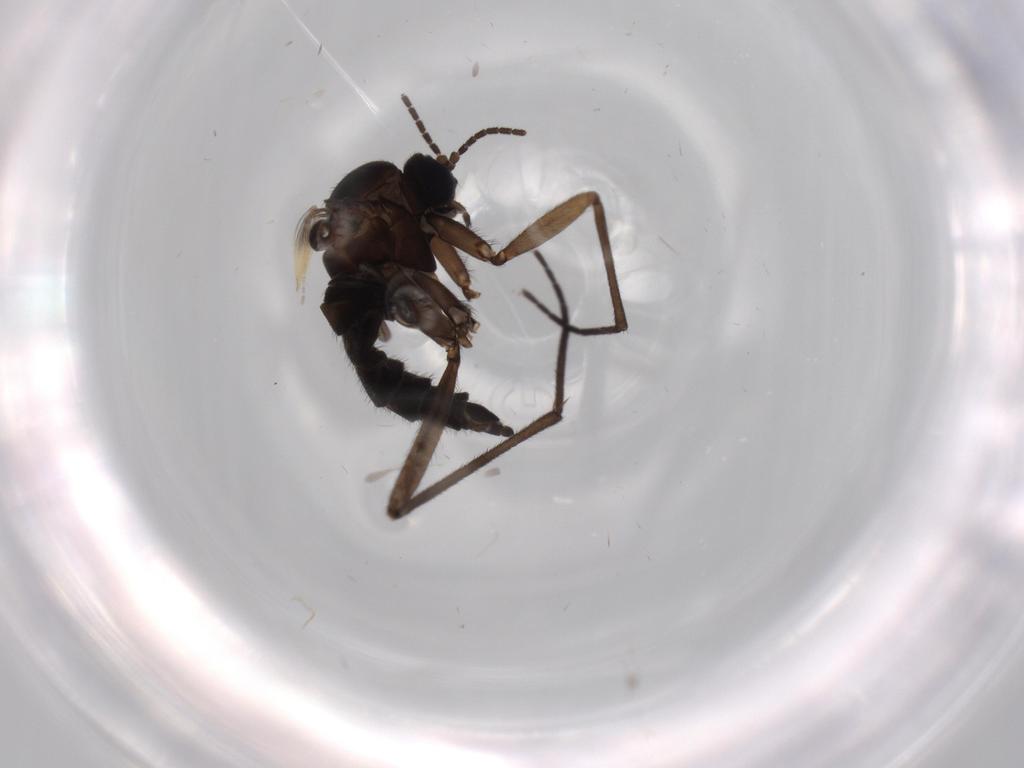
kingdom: Animalia
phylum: Arthropoda
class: Insecta
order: Diptera
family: Sciaridae
